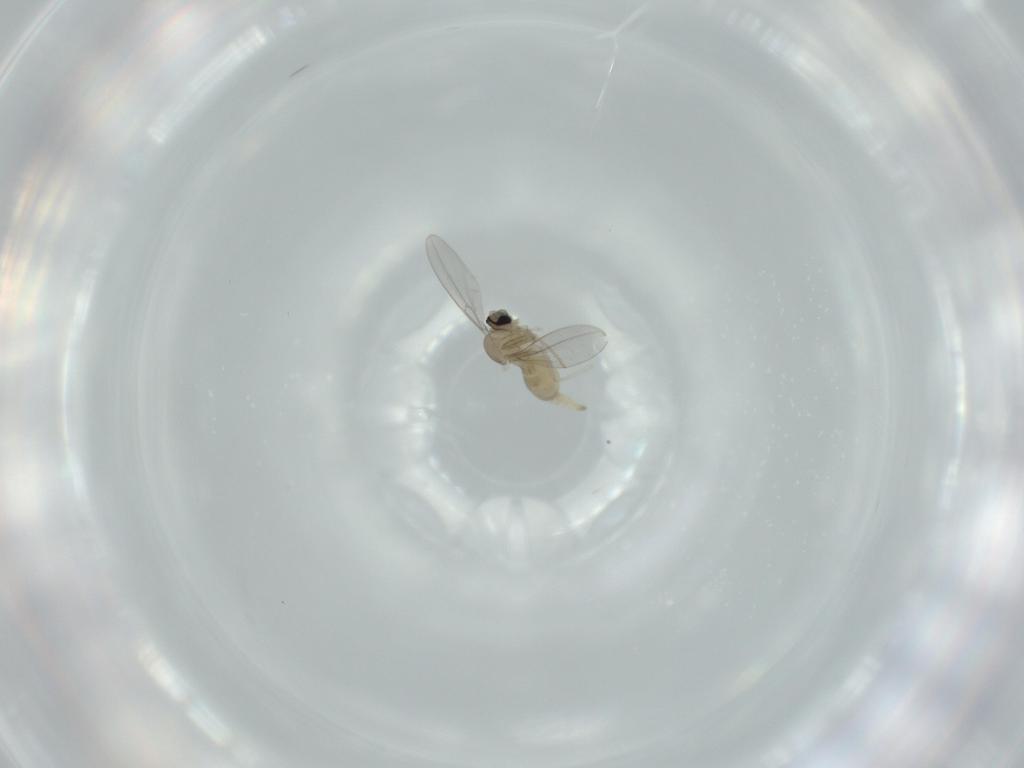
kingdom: Animalia
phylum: Arthropoda
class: Insecta
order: Diptera
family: Cecidomyiidae
